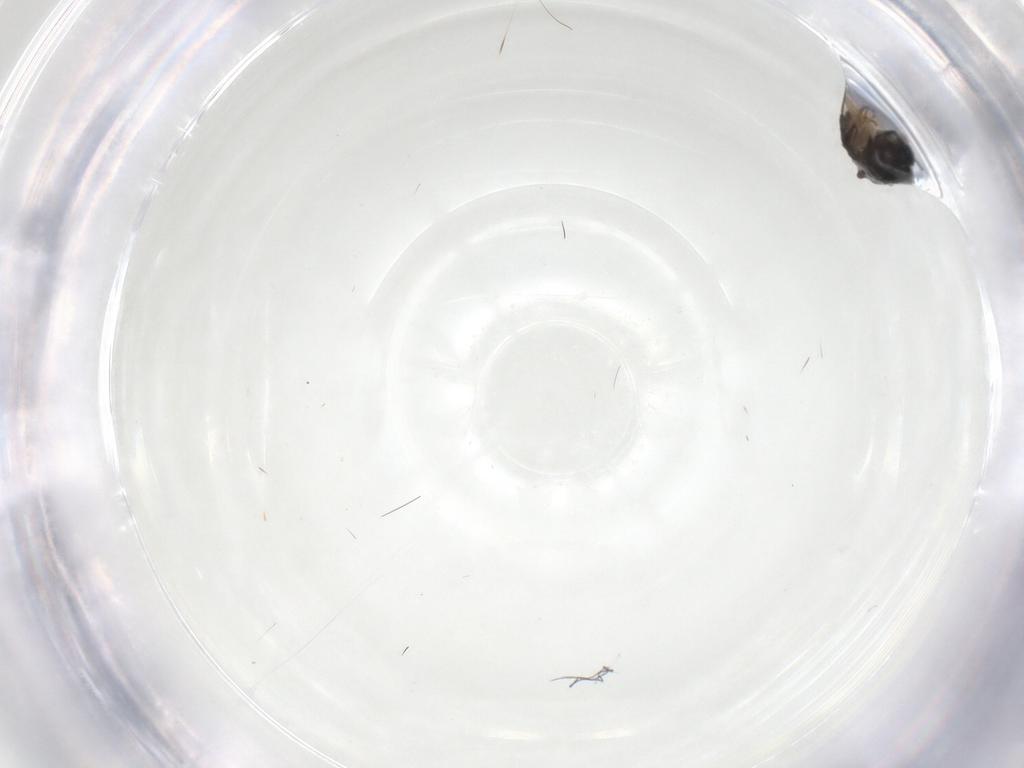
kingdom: Animalia
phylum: Arthropoda
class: Insecta
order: Diptera
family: Sphaeroceridae
